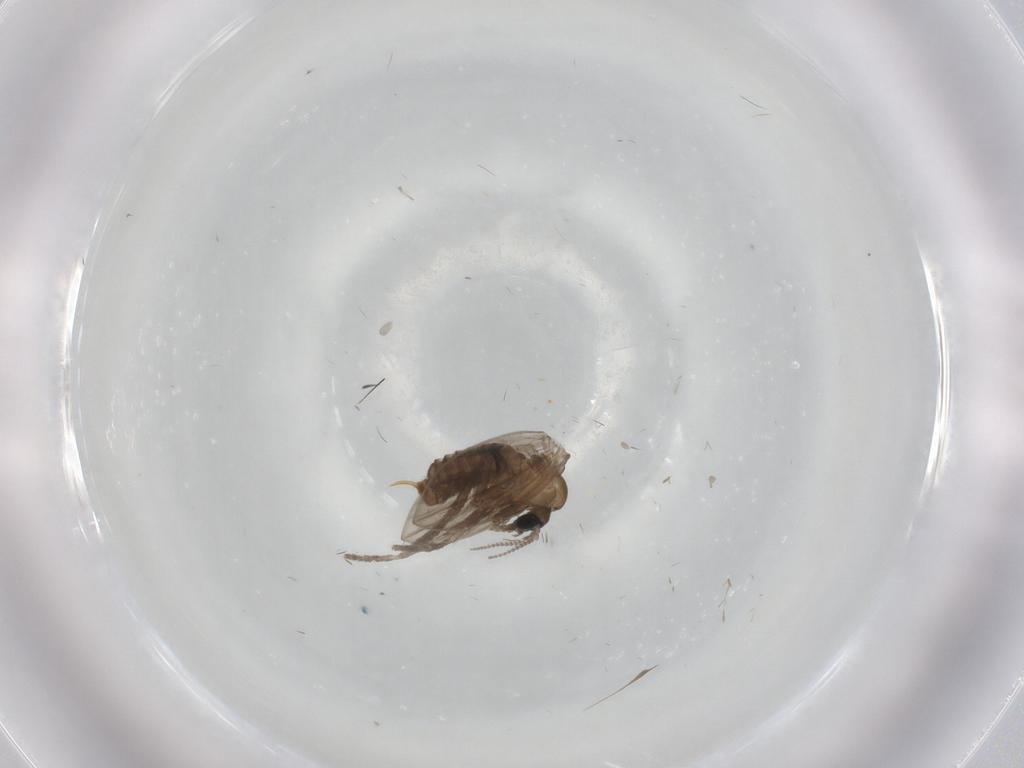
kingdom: Animalia
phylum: Arthropoda
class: Insecta
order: Diptera
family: Psychodidae
